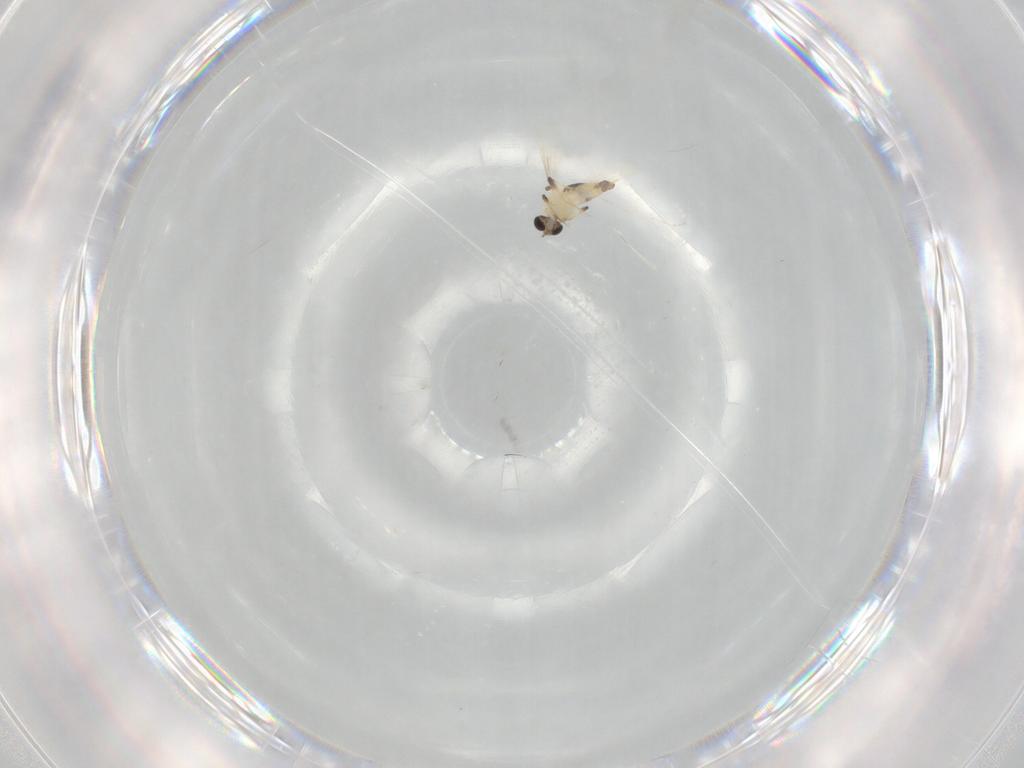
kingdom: Animalia
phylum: Arthropoda
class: Insecta
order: Diptera
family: Chironomidae
